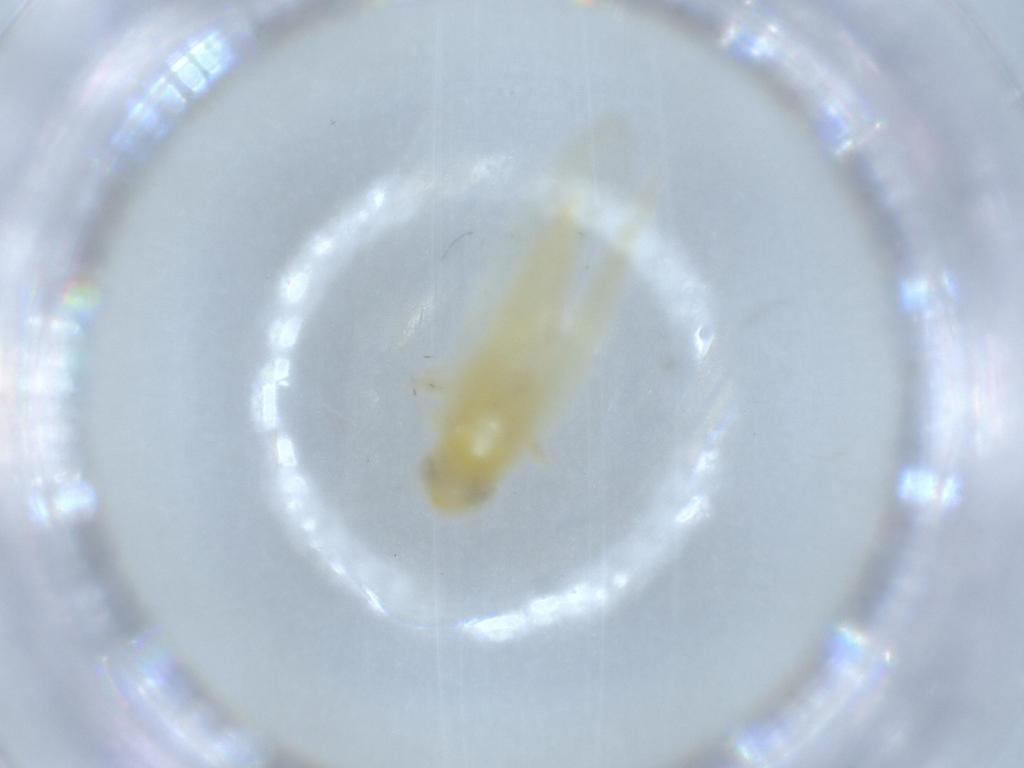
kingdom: Animalia
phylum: Arthropoda
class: Insecta
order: Hemiptera
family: Cicadellidae
